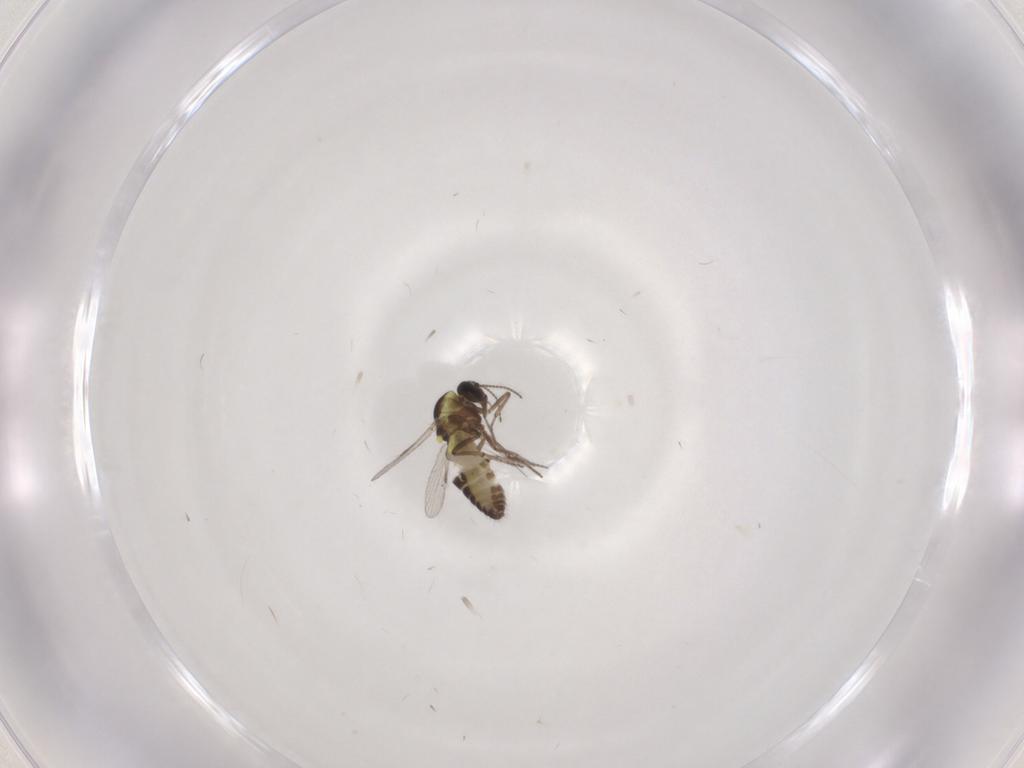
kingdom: Animalia
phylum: Arthropoda
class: Insecta
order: Diptera
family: Ceratopogonidae
